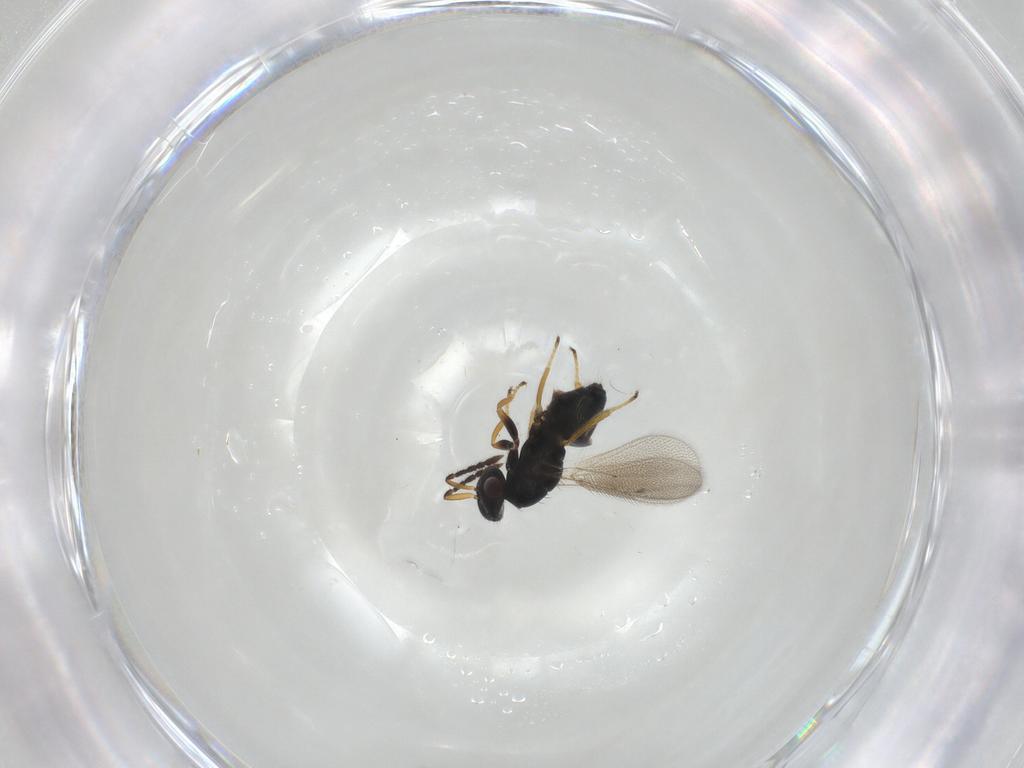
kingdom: Animalia
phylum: Arthropoda
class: Insecta
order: Hymenoptera
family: Eulophidae
